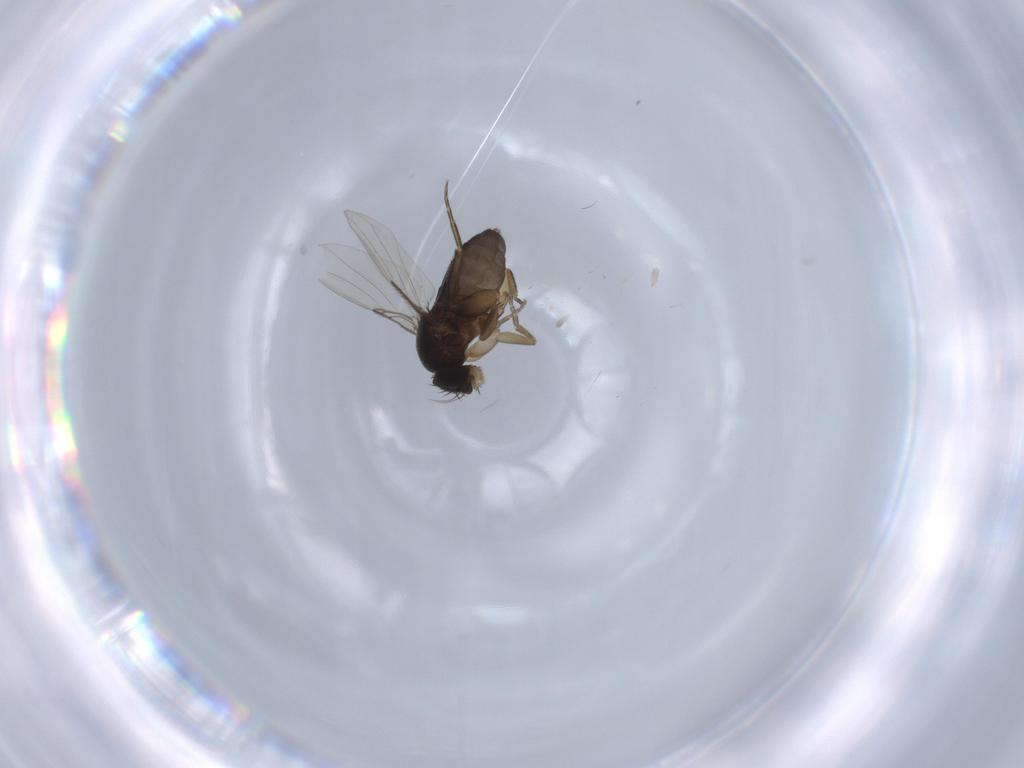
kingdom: Animalia
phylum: Arthropoda
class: Insecta
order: Diptera
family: Phoridae
